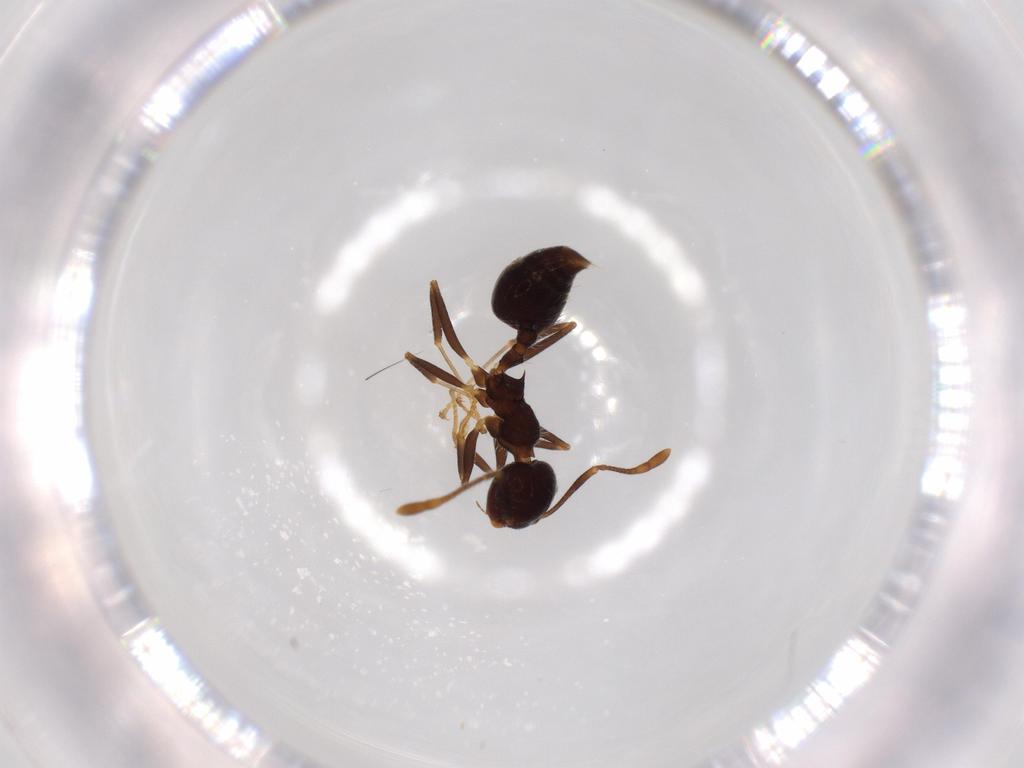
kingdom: Animalia
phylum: Arthropoda
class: Insecta
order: Hymenoptera
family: Formicidae
